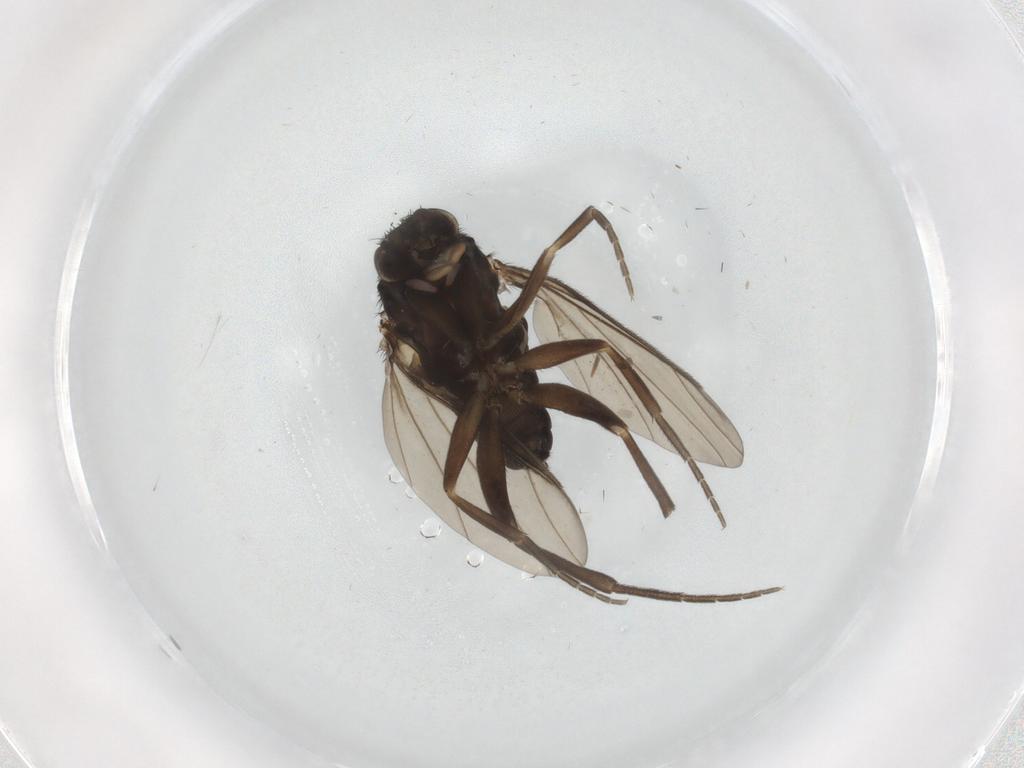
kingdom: Animalia
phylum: Arthropoda
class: Insecta
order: Diptera
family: Phoridae
